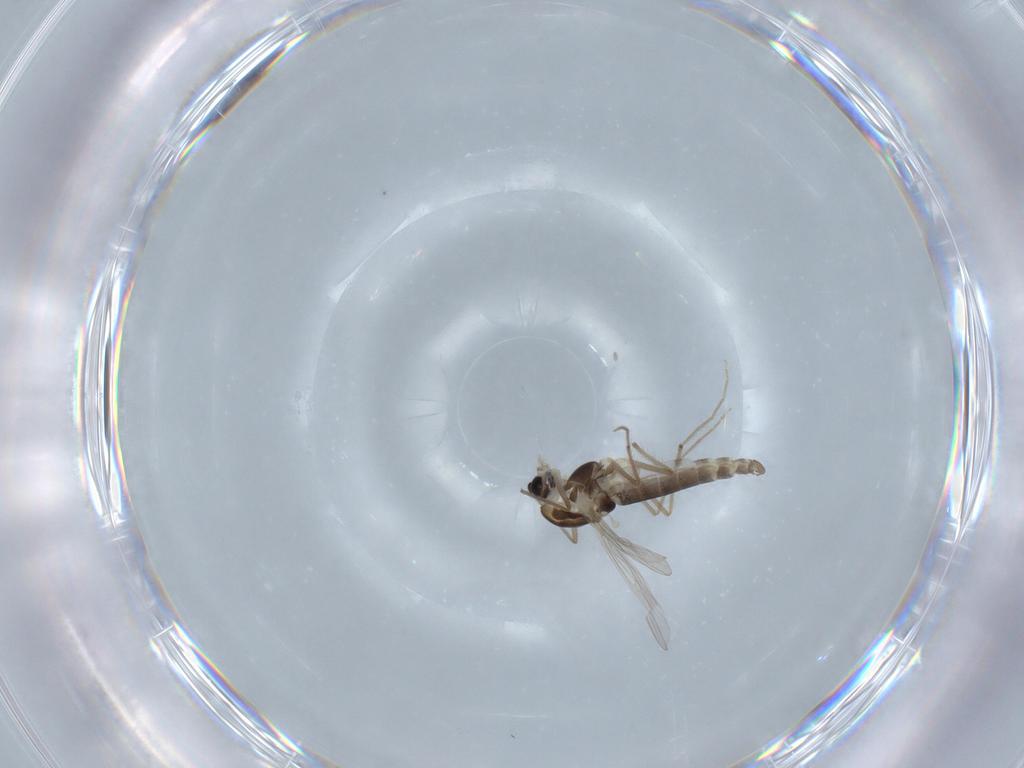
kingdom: Animalia
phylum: Arthropoda
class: Insecta
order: Diptera
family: Chironomidae
